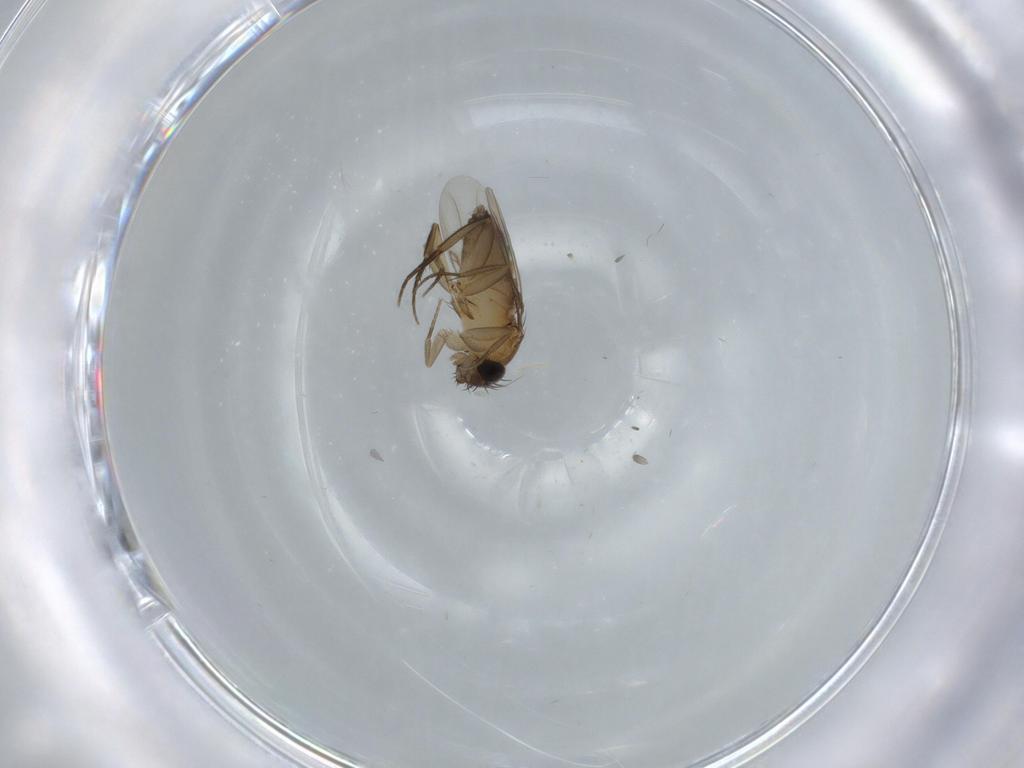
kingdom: Animalia
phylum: Arthropoda
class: Insecta
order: Diptera
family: Phoridae
